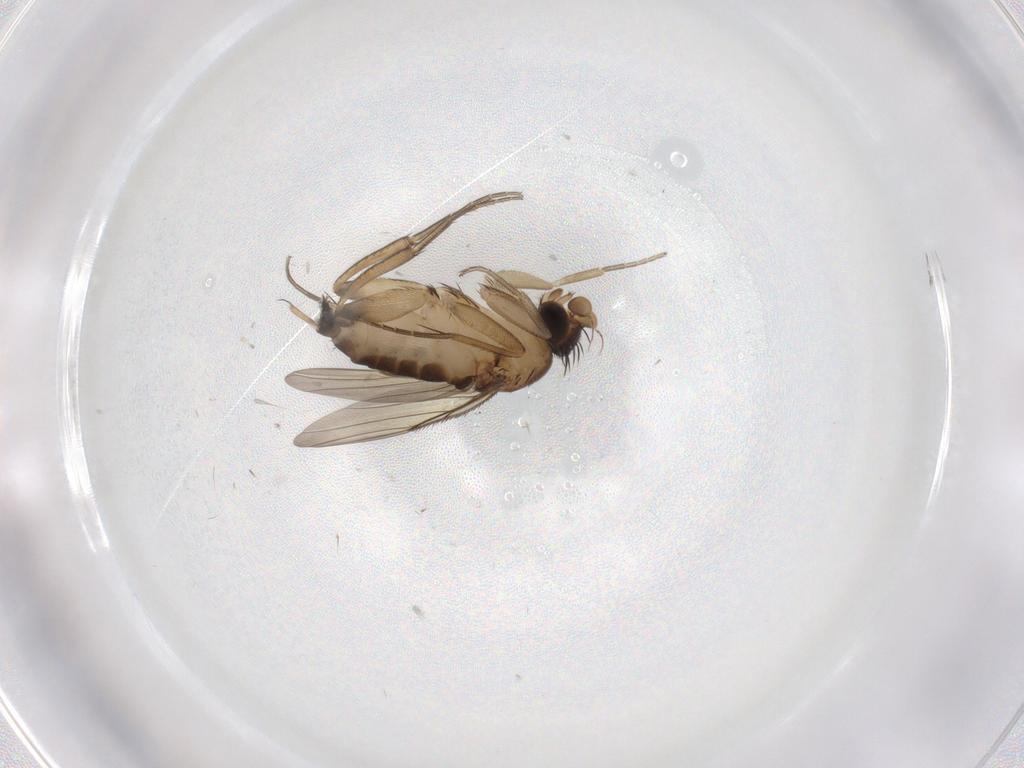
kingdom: Animalia
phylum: Arthropoda
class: Insecta
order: Diptera
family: Phoridae
